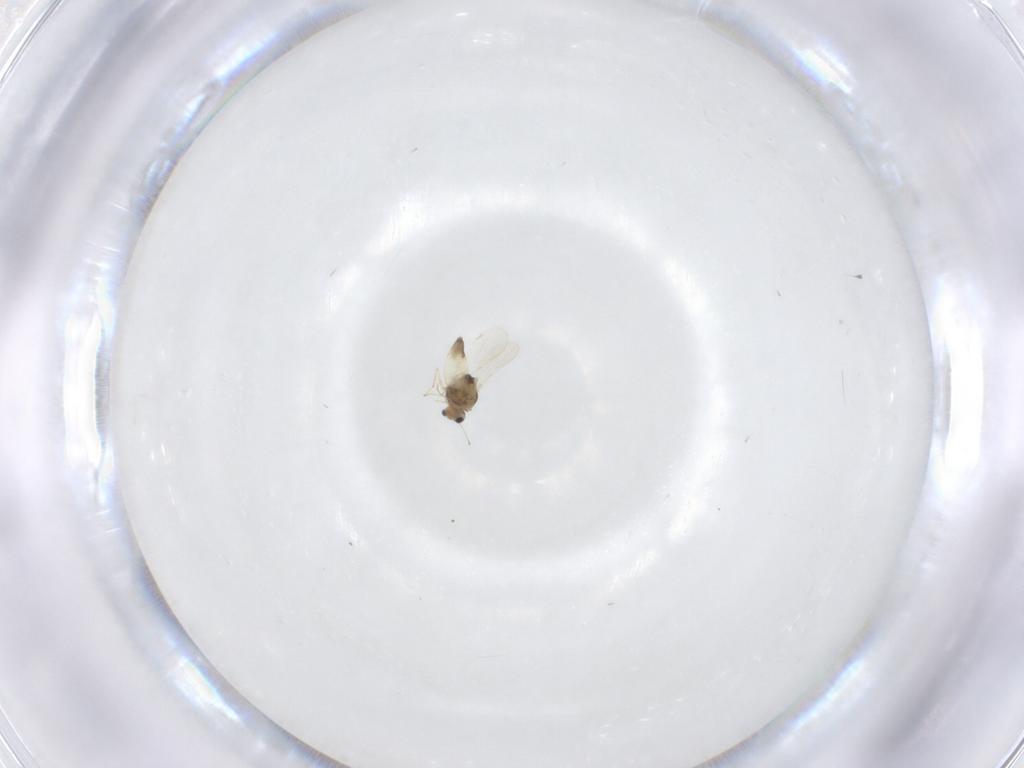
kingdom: Animalia
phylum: Arthropoda
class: Insecta
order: Diptera
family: Chironomidae
